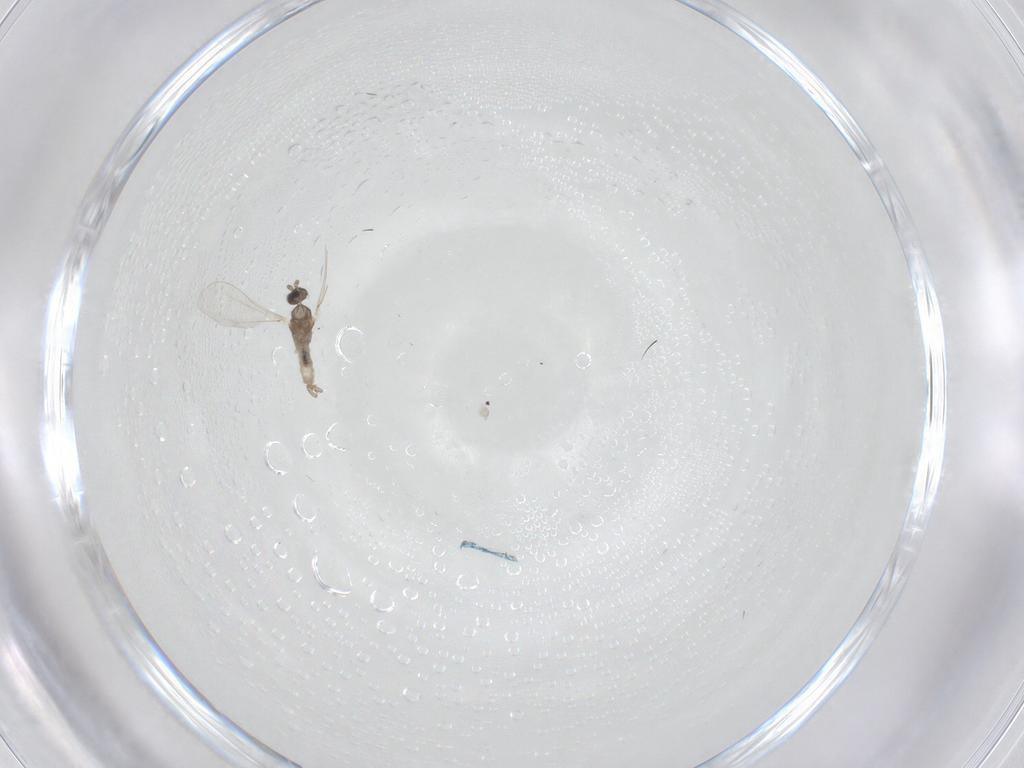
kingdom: Animalia
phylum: Arthropoda
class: Insecta
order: Diptera
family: Cecidomyiidae
